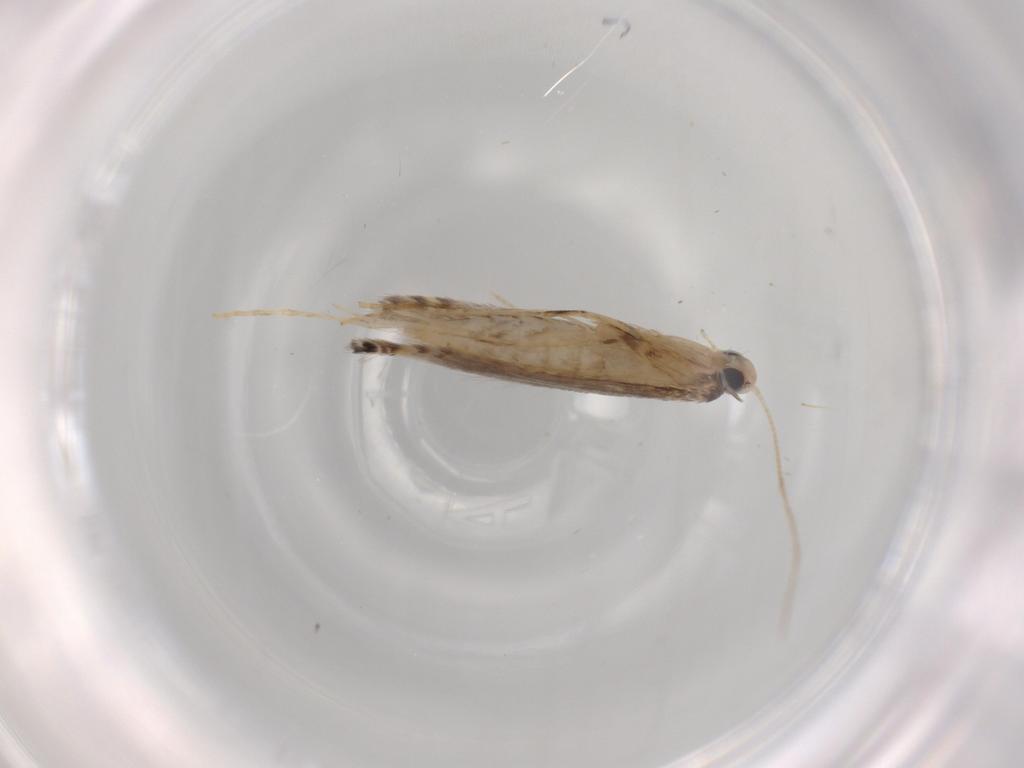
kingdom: Animalia
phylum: Arthropoda
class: Insecta
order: Lepidoptera
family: Gracillariidae
